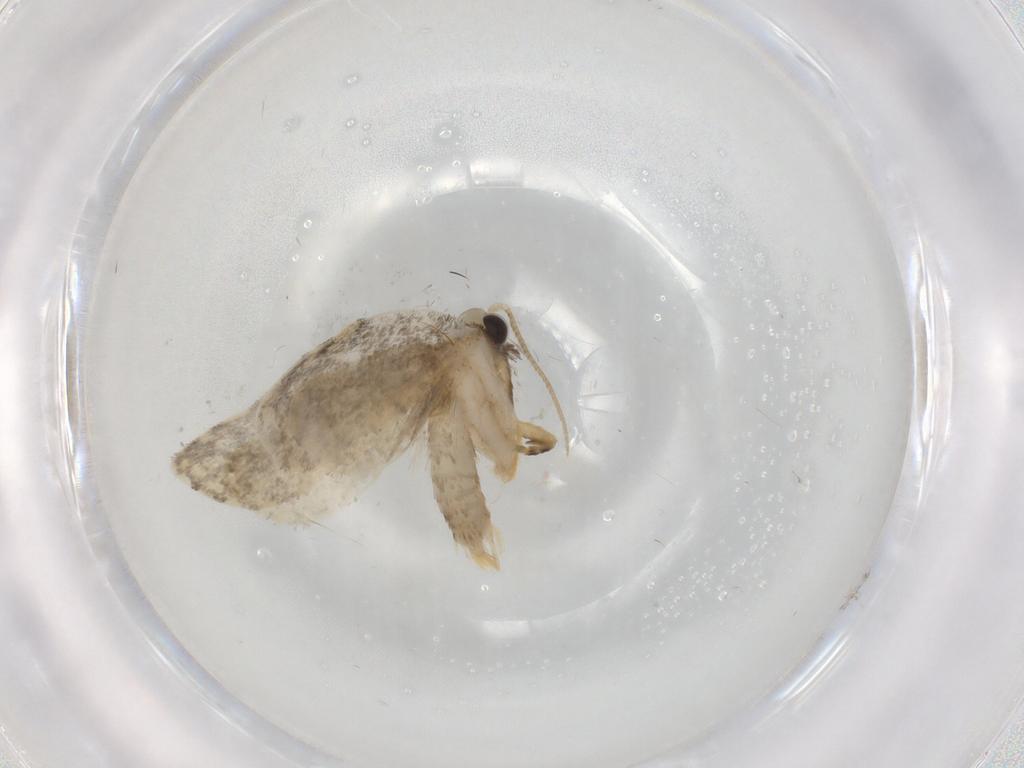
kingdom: Animalia
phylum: Arthropoda
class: Insecta
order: Lepidoptera
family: Psychidae
